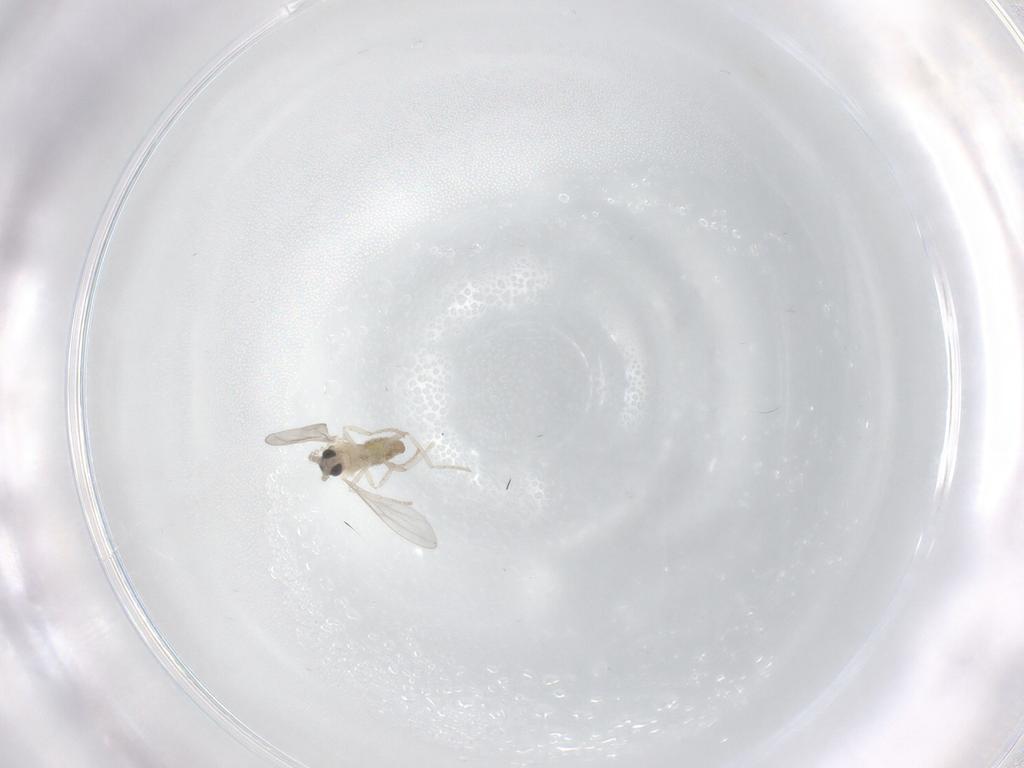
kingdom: Animalia
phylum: Arthropoda
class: Insecta
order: Diptera
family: Cecidomyiidae
